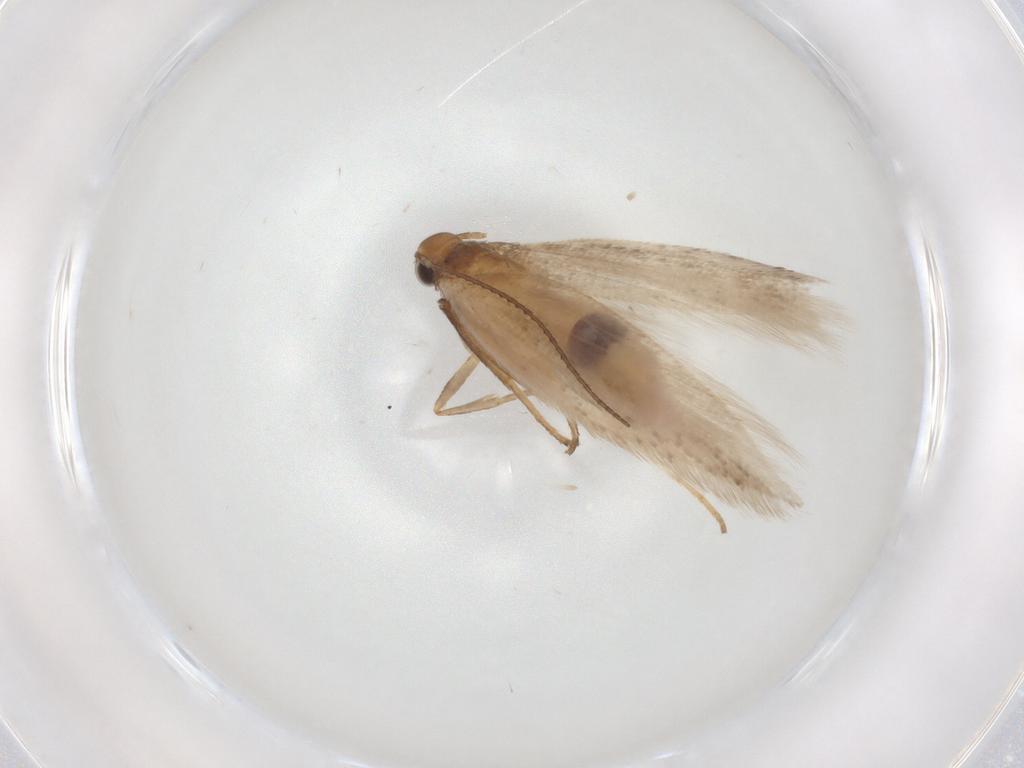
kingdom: Animalia
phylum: Arthropoda
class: Insecta
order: Lepidoptera
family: Gelechiidae
